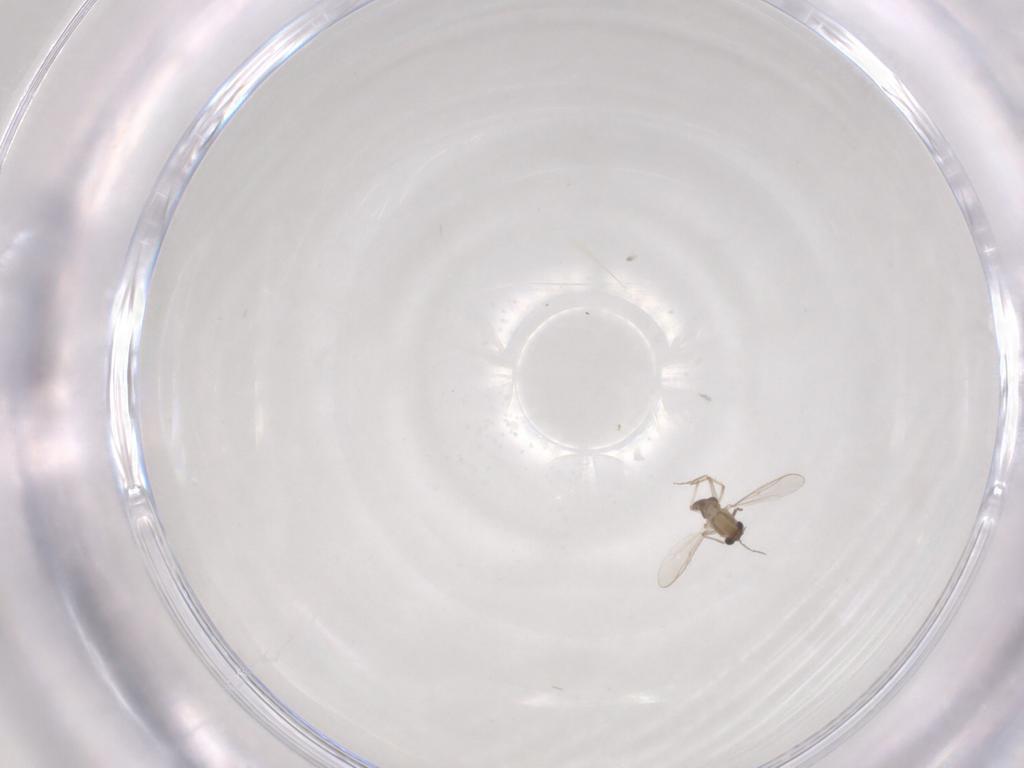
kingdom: Animalia
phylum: Arthropoda
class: Insecta
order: Diptera
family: Chironomidae
